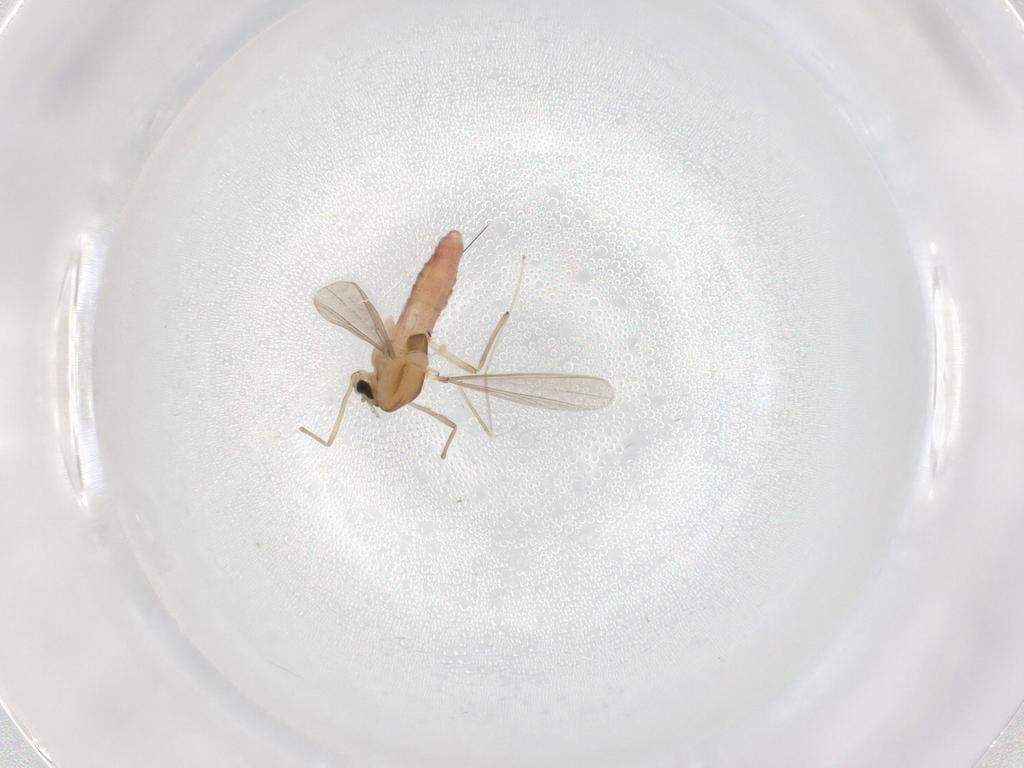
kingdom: Animalia
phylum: Arthropoda
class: Insecta
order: Diptera
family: Cecidomyiidae
